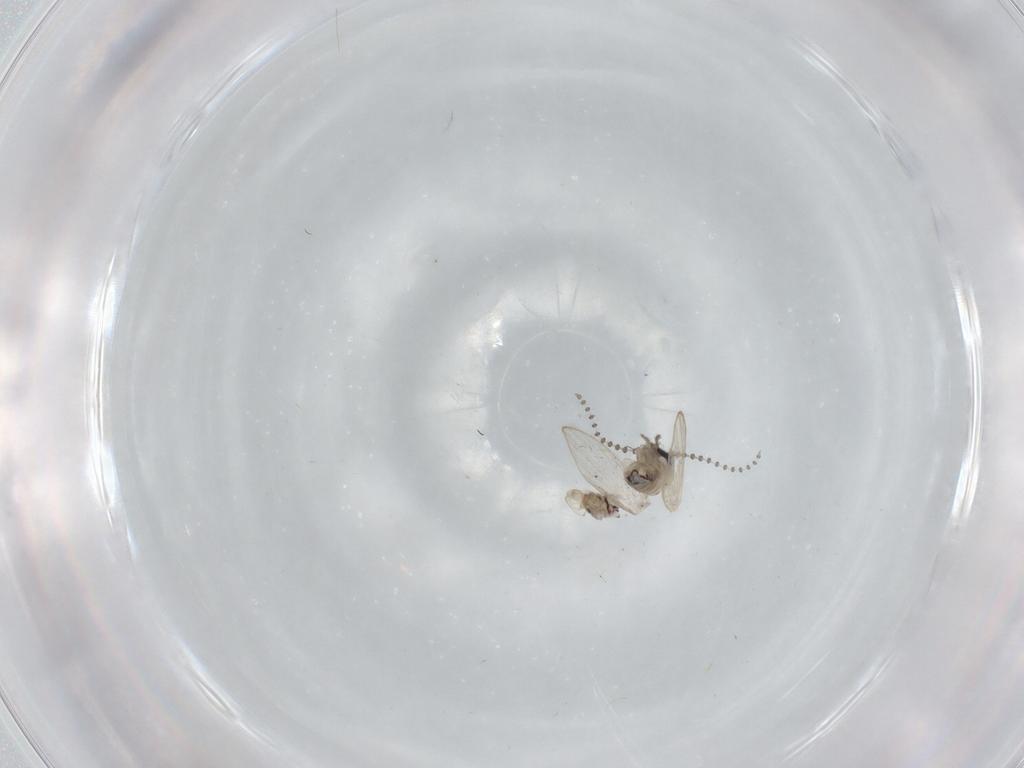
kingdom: Animalia
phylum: Arthropoda
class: Insecta
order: Diptera
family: Psychodidae
